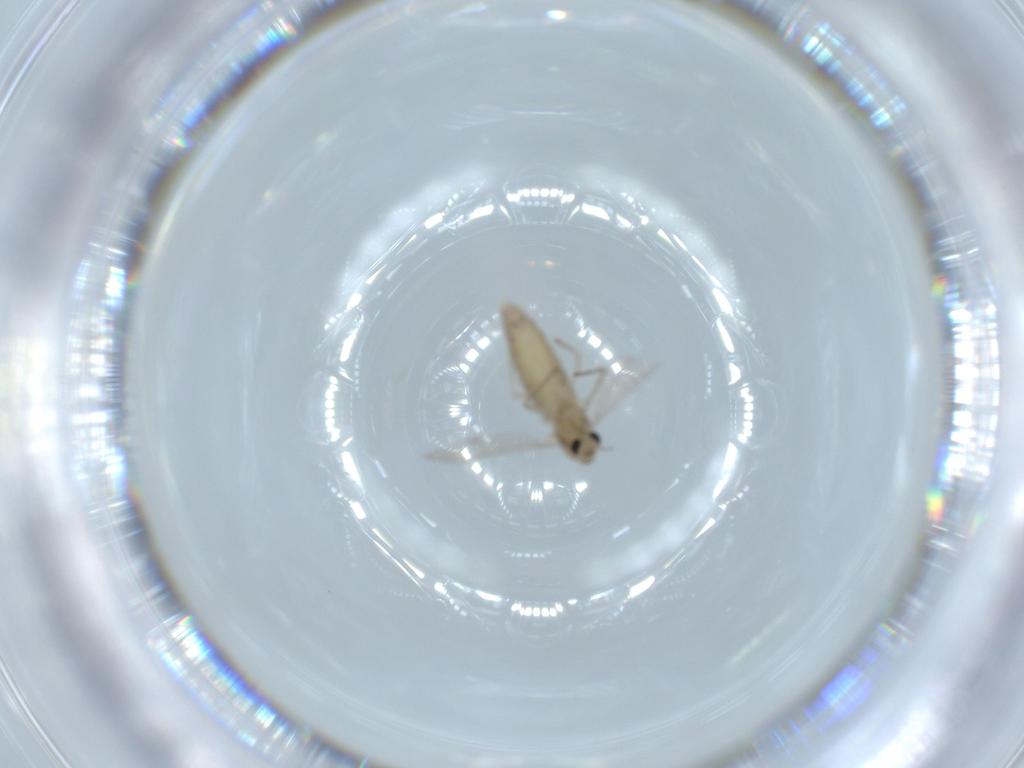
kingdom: Animalia
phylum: Arthropoda
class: Insecta
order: Diptera
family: Chironomidae
